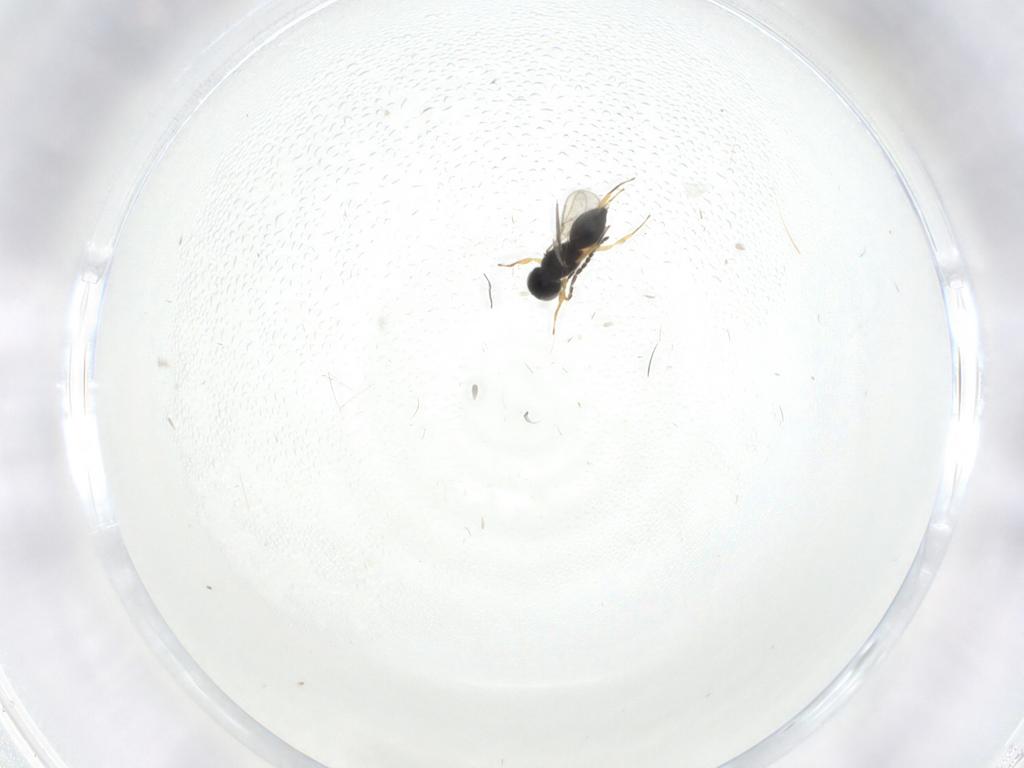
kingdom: Animalia
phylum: Arthropoda
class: Insecta
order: Hymenoptera
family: Scelionidae
